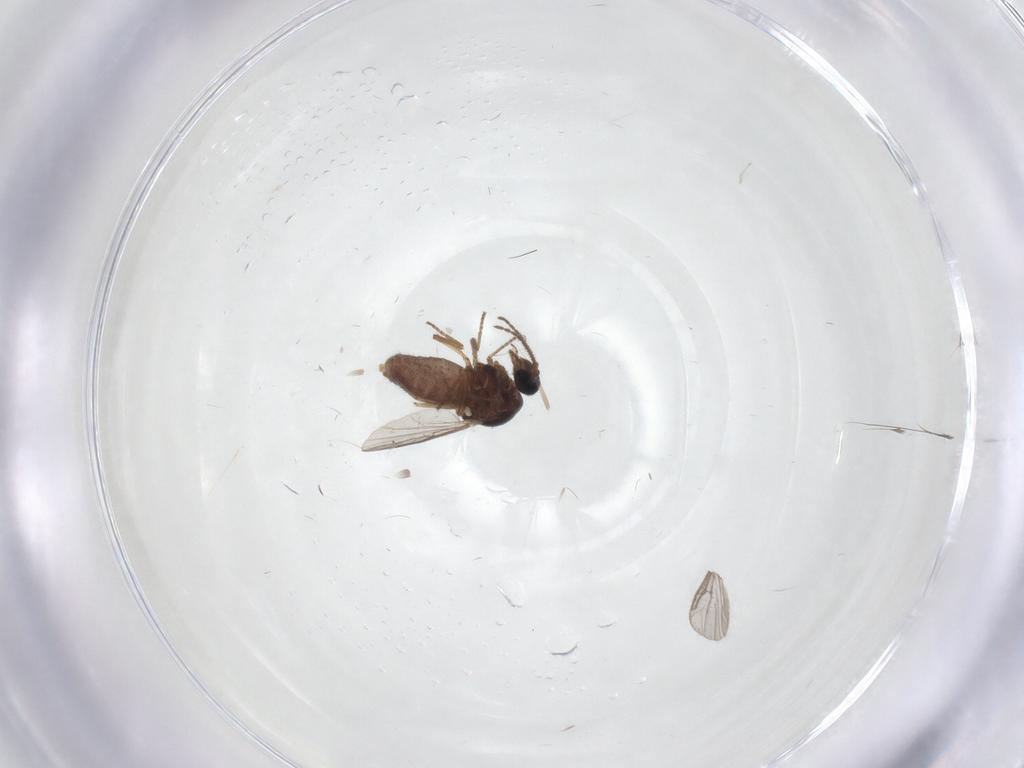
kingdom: Animalia
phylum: Arthropoda
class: Insecta
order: Diptera
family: Ceratopogonidae
